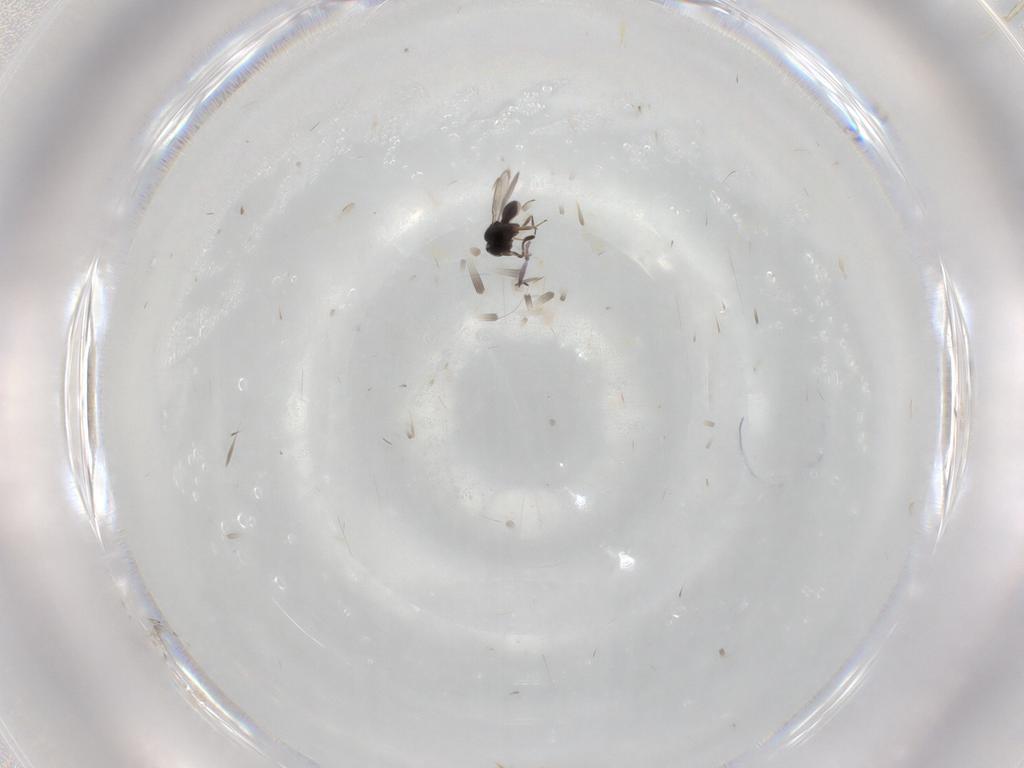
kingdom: Animalia
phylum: Arthropoda
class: Insecta
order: Hymenoptera
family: Scelionidae
